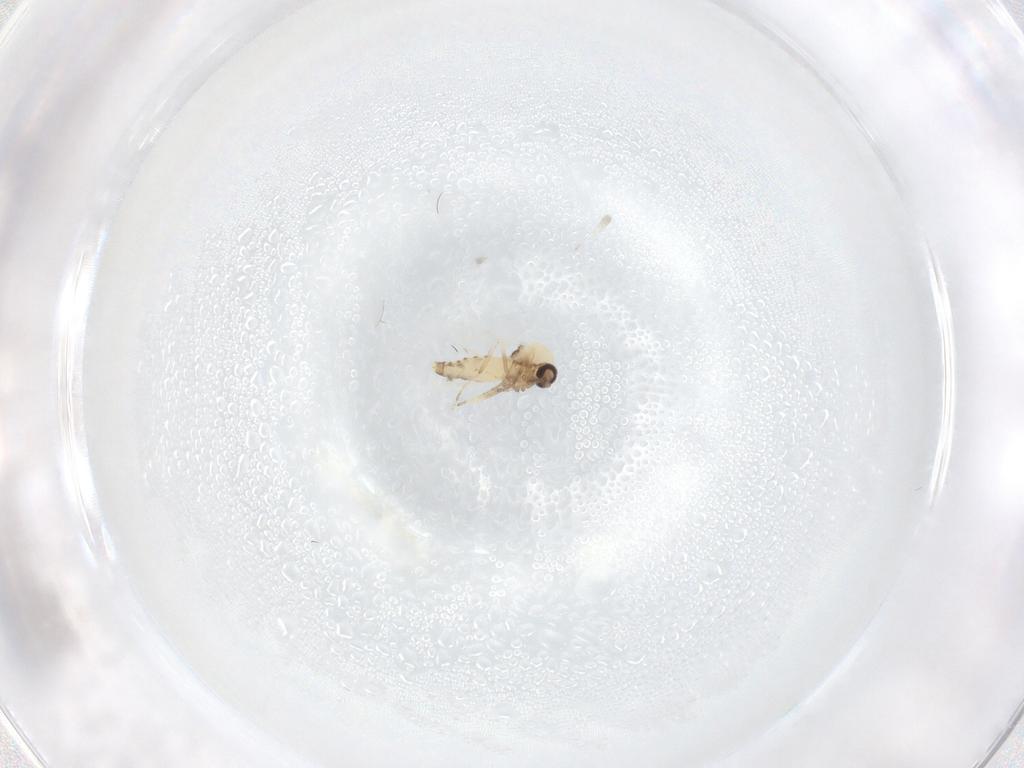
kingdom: Animalia
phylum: Arthropoda
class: Insecta
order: Diptera
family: Ceratopogonidae
